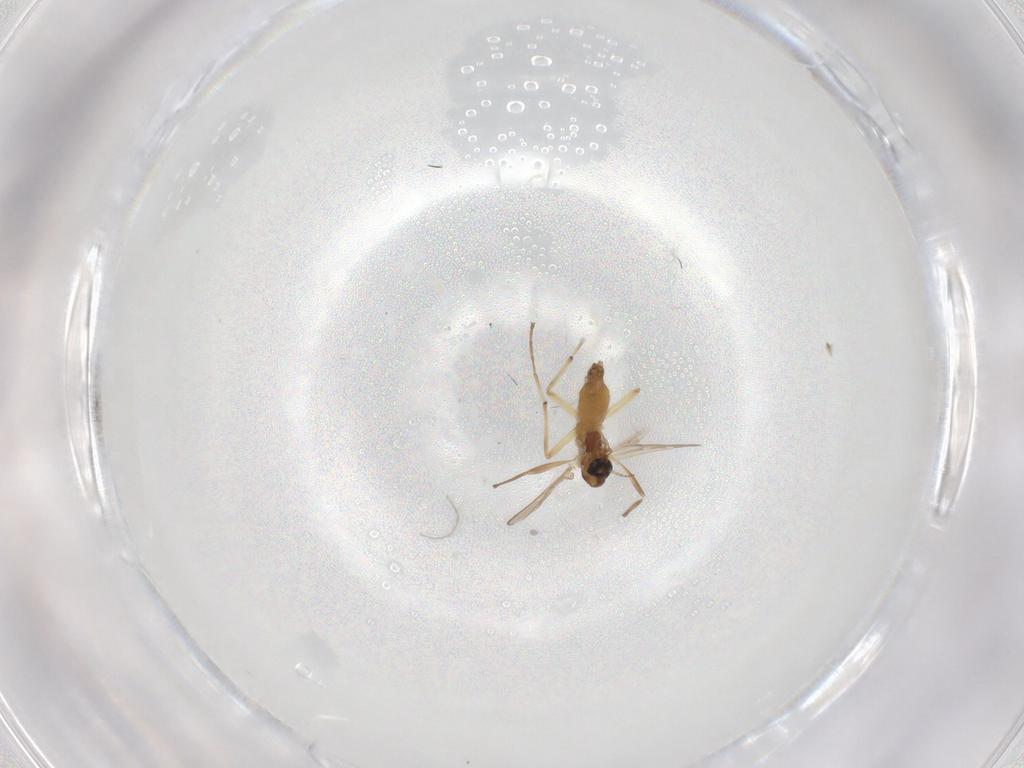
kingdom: Animalia
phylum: Arthropoda
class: Insecta
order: Diptera
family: Chironomidae
